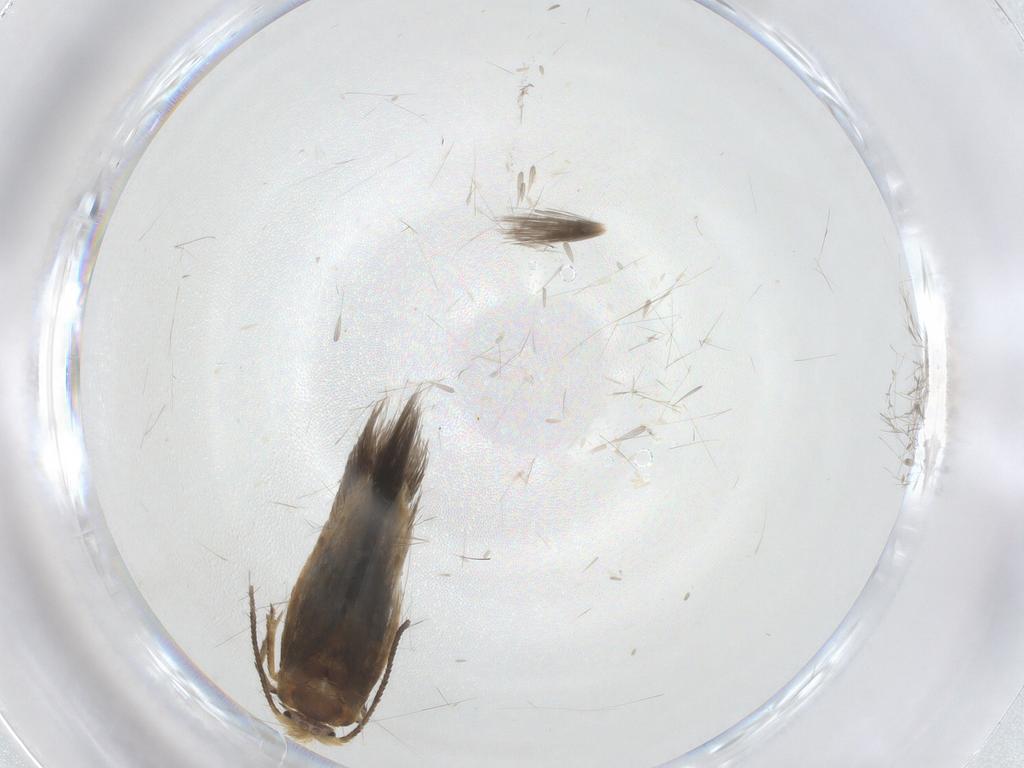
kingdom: Animalia
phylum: Arthropoda
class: Insecta
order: Lepidoptera
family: Nepticulidae
